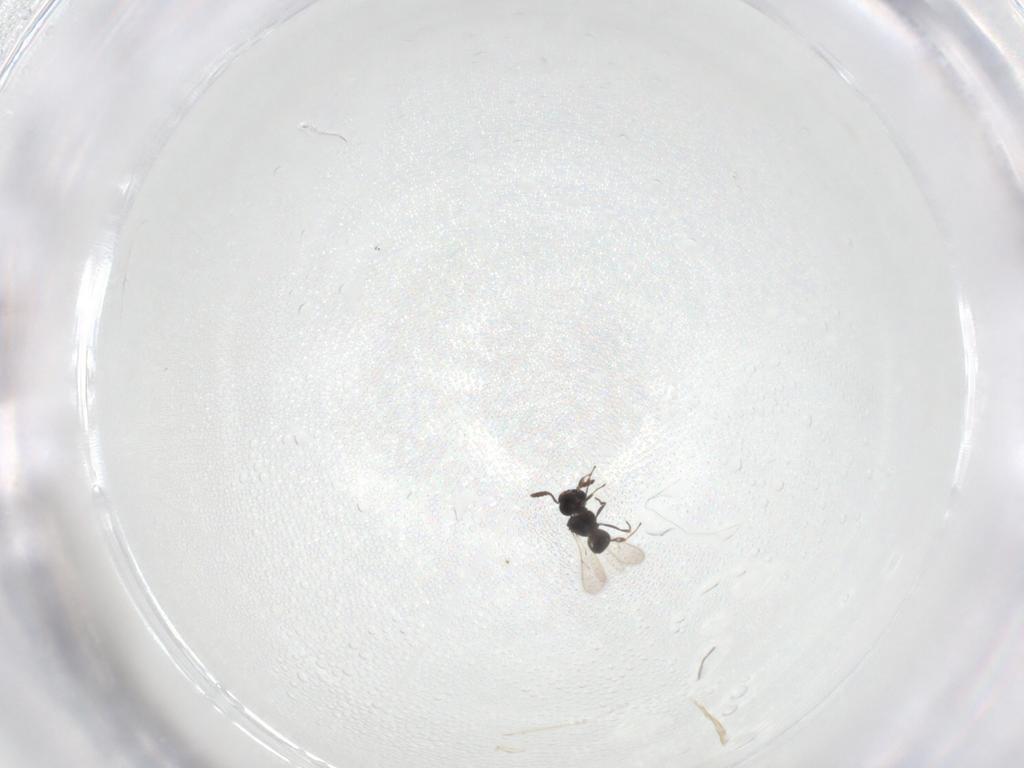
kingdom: Animalia
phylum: Arthropoda
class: Insecta
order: Hymenoptera
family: Scelionidae
